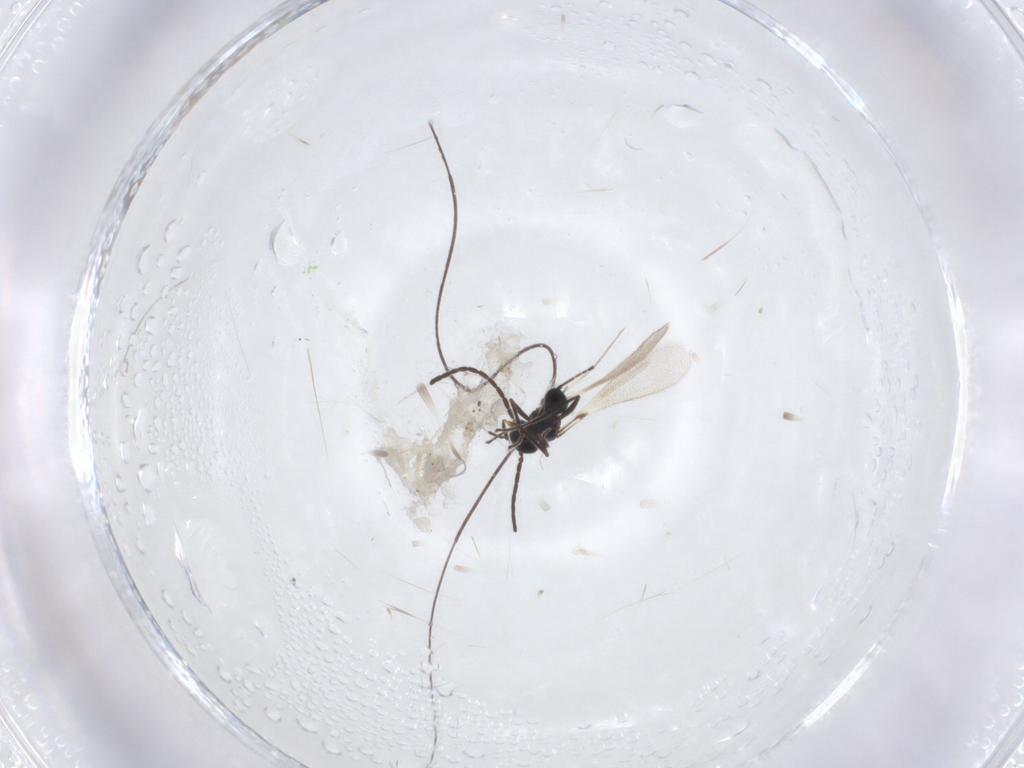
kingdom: Animalia
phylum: Arthropoda
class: Insecta
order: Hymenoptera
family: Mymaridae
